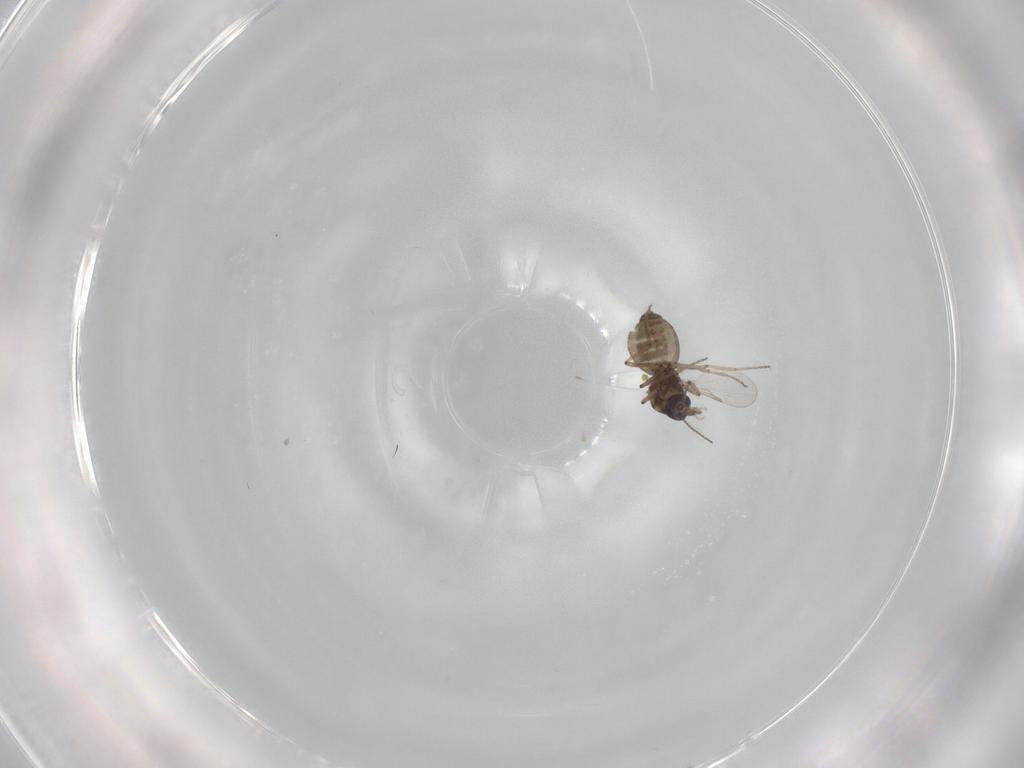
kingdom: Animalia
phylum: Arthropoda
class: Insecta
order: Diptera
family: Ceratopogonidae
